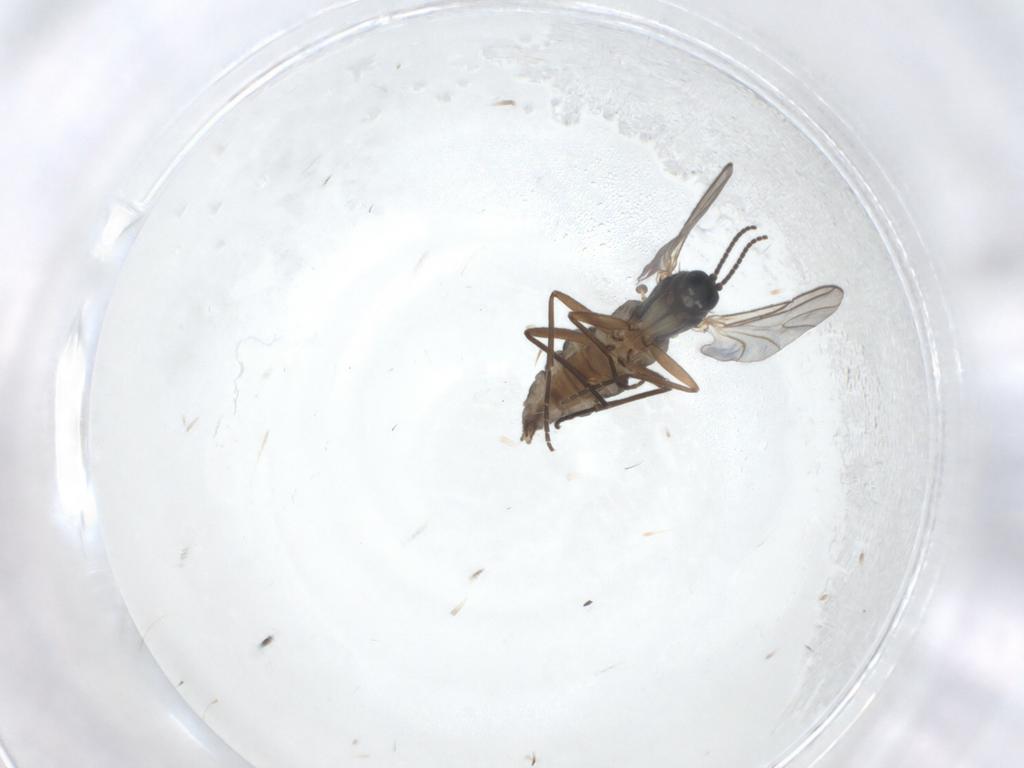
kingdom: Animalia
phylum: Arthropoda
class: Insecta
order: Diptera
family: Sciaridae
